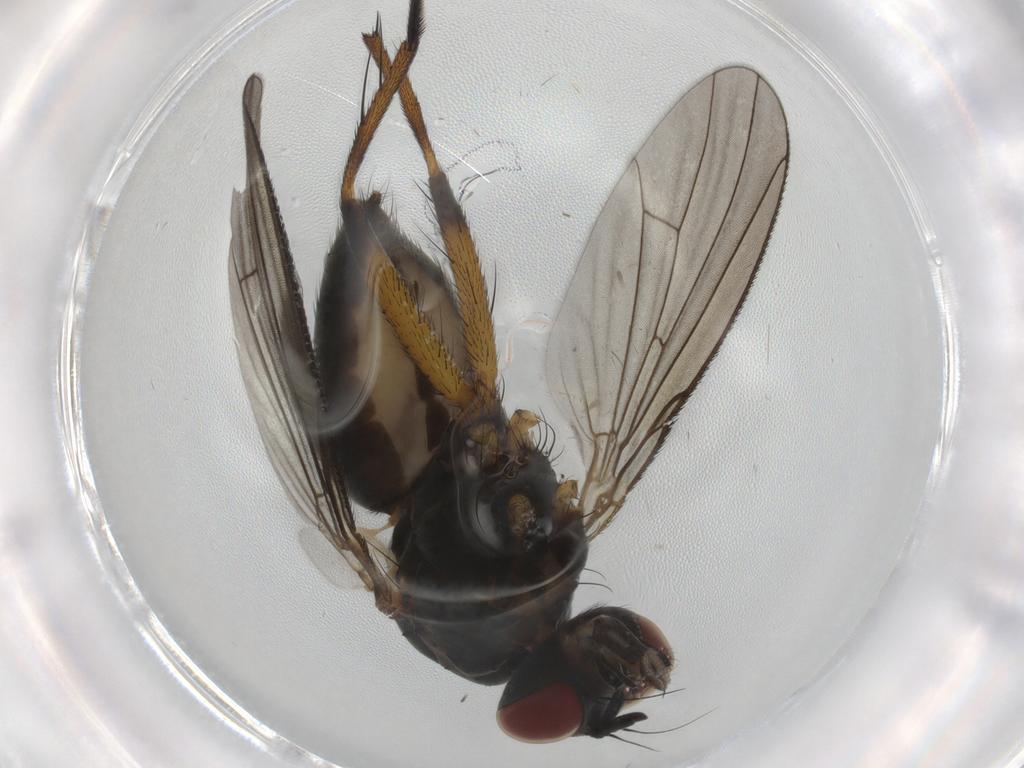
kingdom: Animalia
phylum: Arthropoda
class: Insecta
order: Diptera
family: Muscidae
